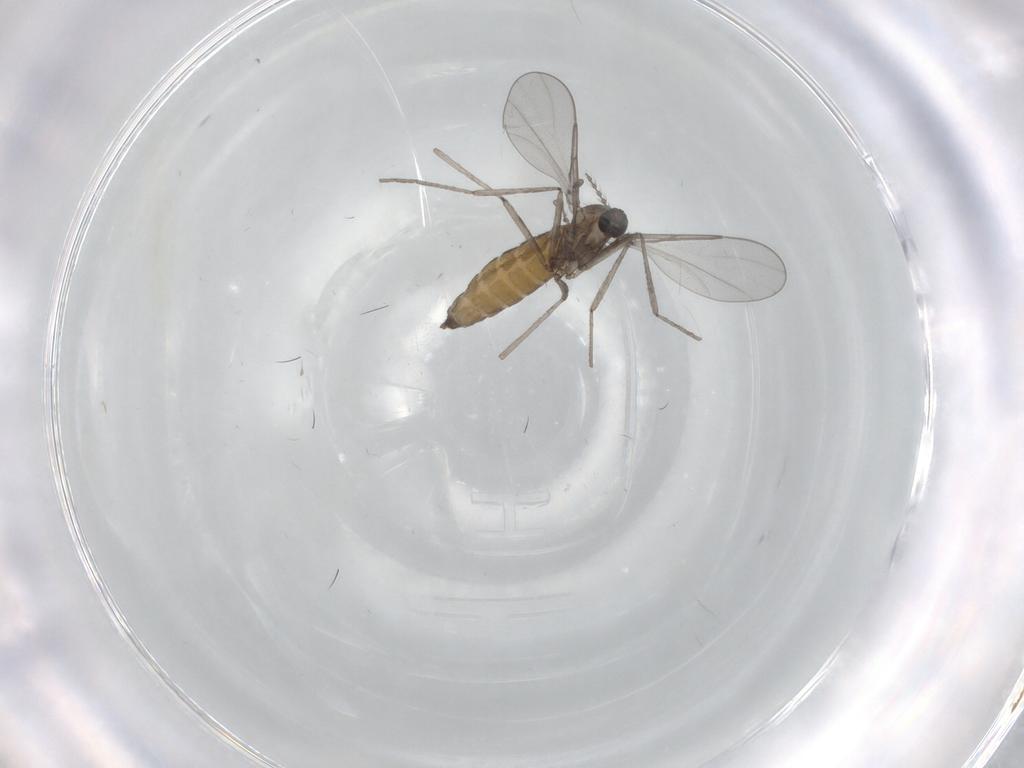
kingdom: Animalia
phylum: Arthropoda
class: Insecta
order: Diptera
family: Cecidomyiidae
